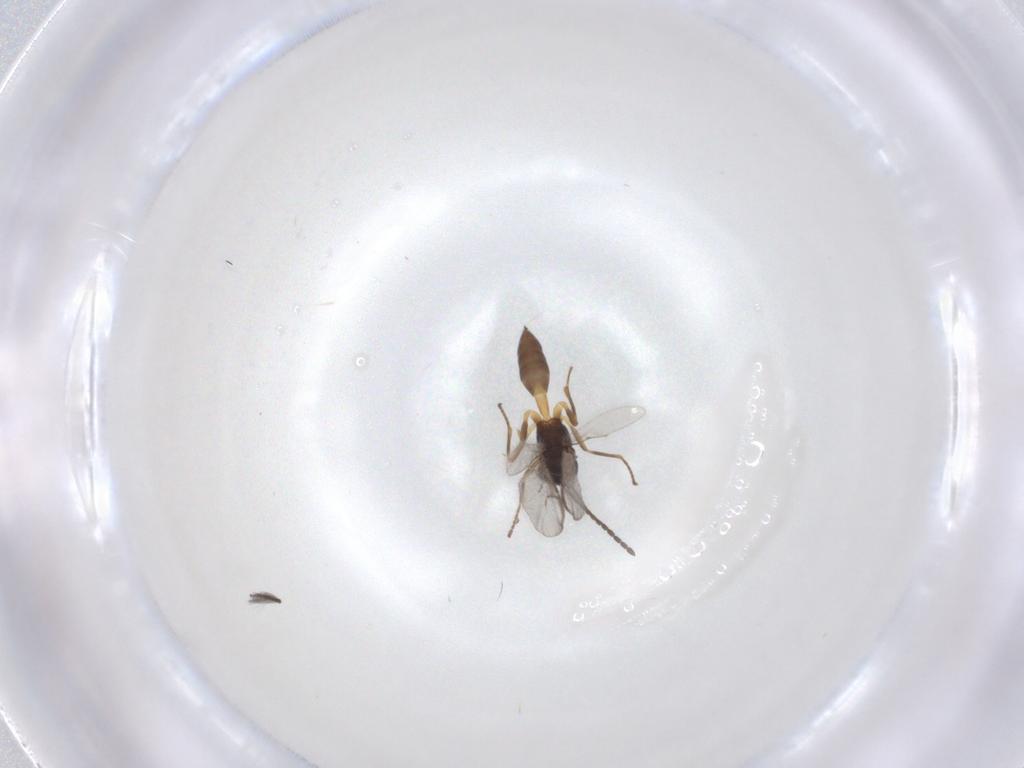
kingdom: Animalia
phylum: Arthropoda
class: Insecta
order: Hymenoptera
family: Braconidae
